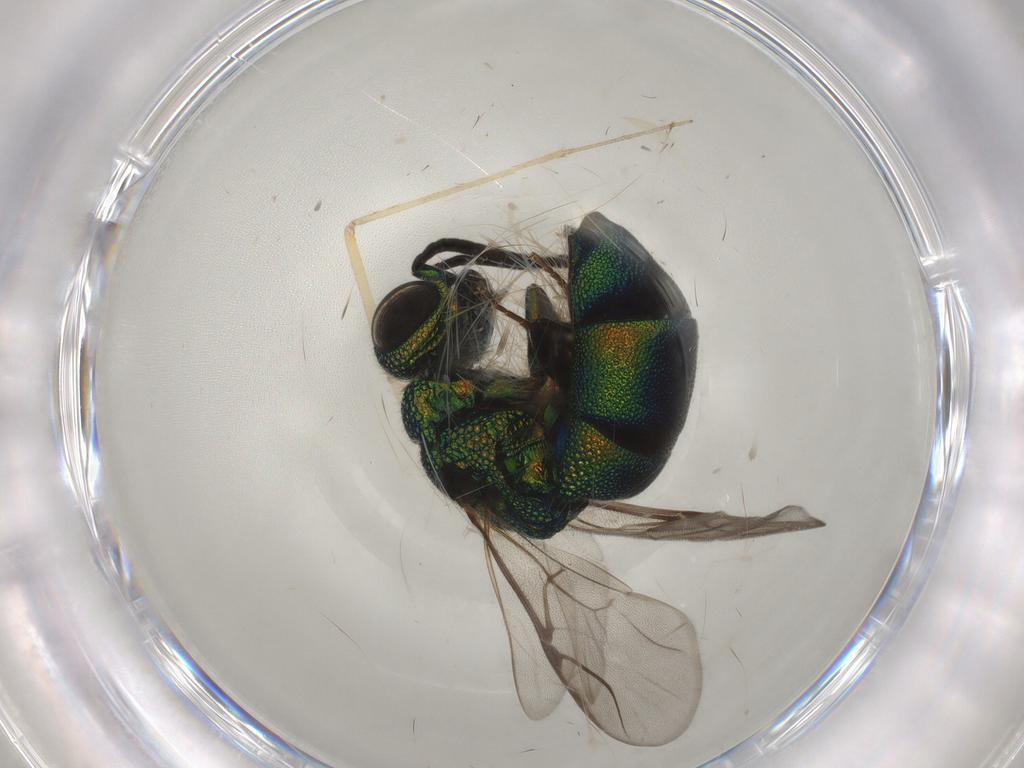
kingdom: Animalia
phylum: Arthropoda
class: Insecta
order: Hymenoptera
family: Chrysididae
